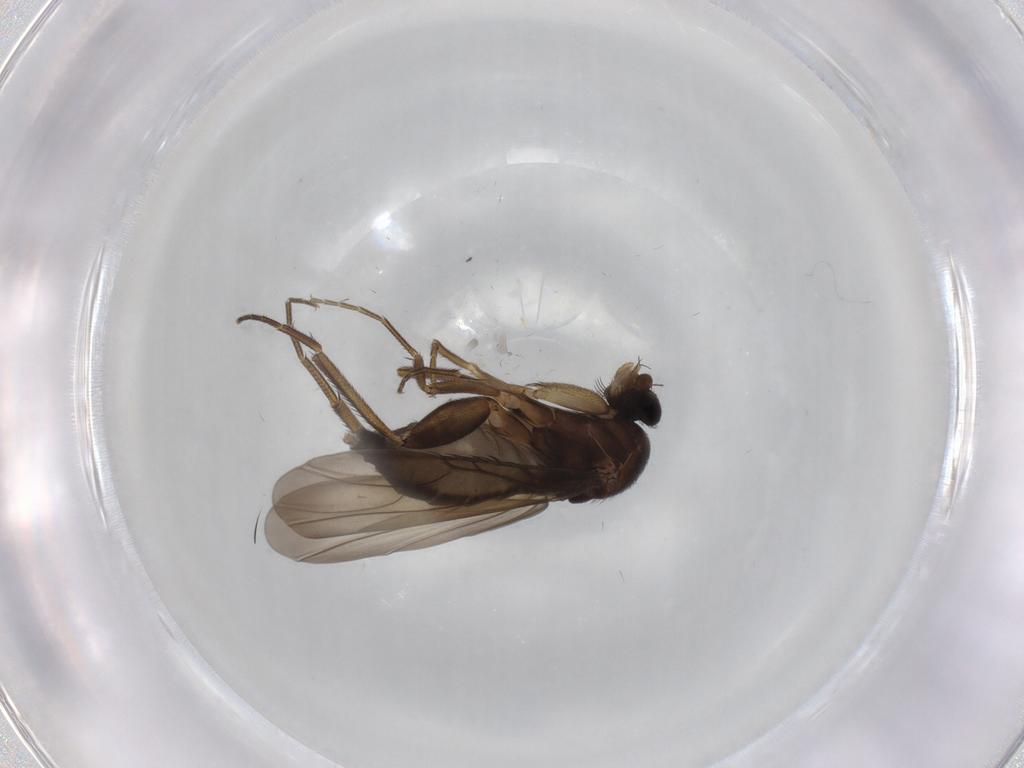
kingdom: Animalia
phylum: Arthropoda
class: Insecta
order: Diptera
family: Phoridae
